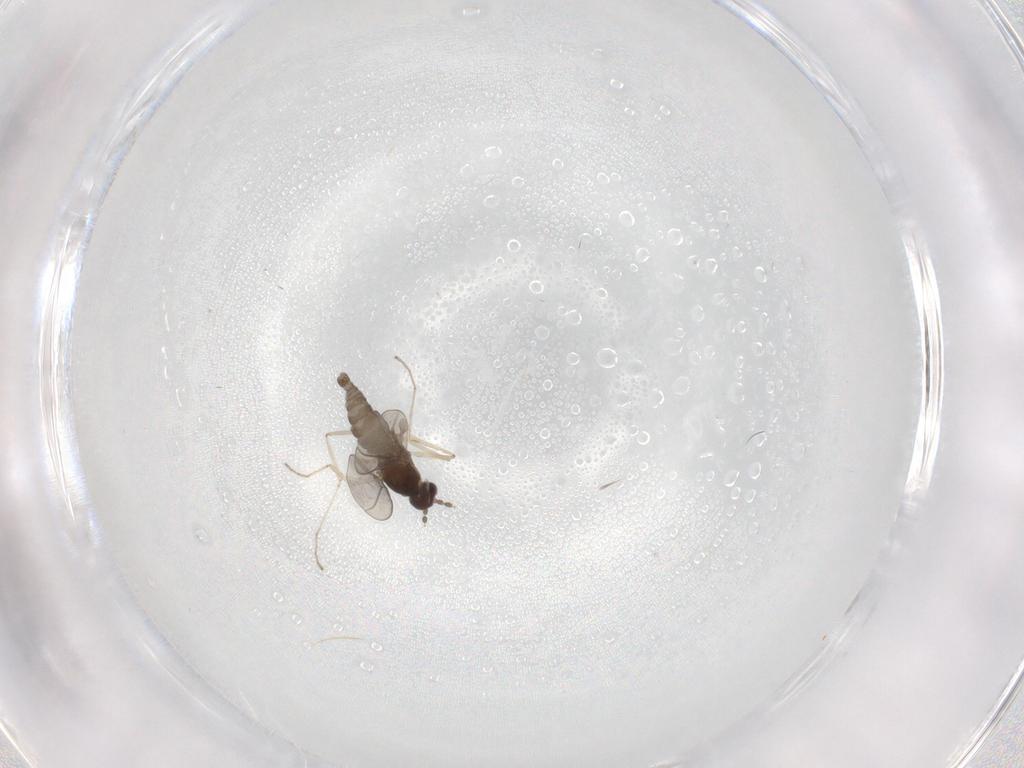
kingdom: Animalia
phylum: Arthropoda
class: Insecta
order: Diptera
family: Cecidomyiidae
